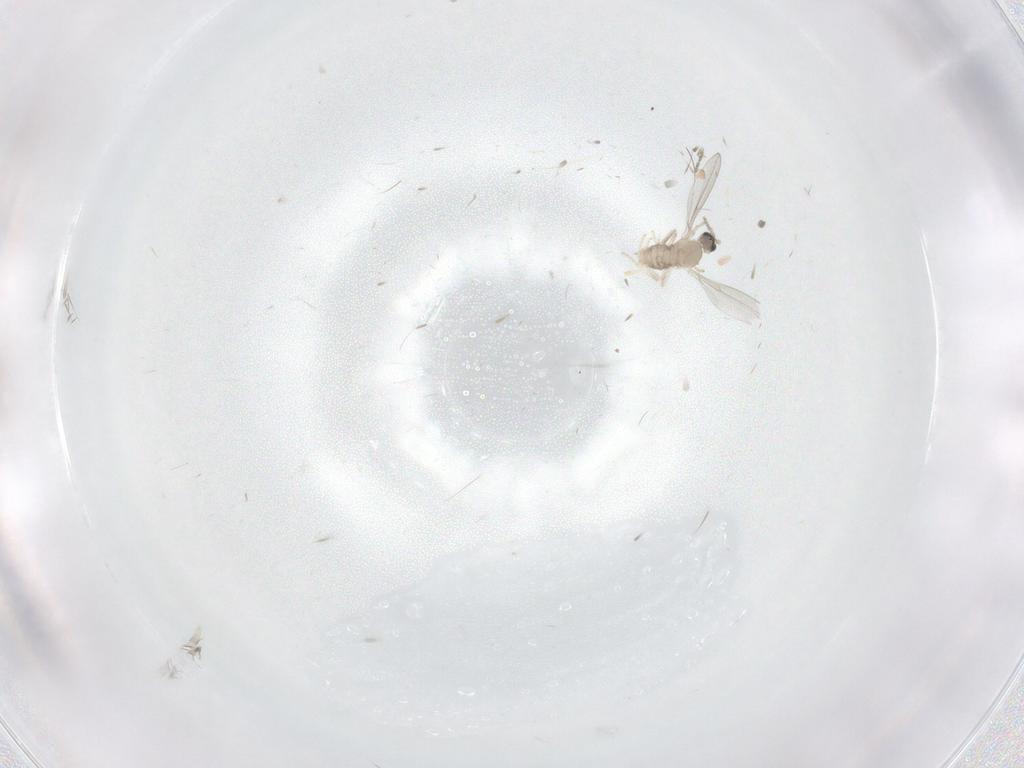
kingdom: Animalia
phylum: Arthropoda
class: Insecta
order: Diptera
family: Cecidomyiidae
